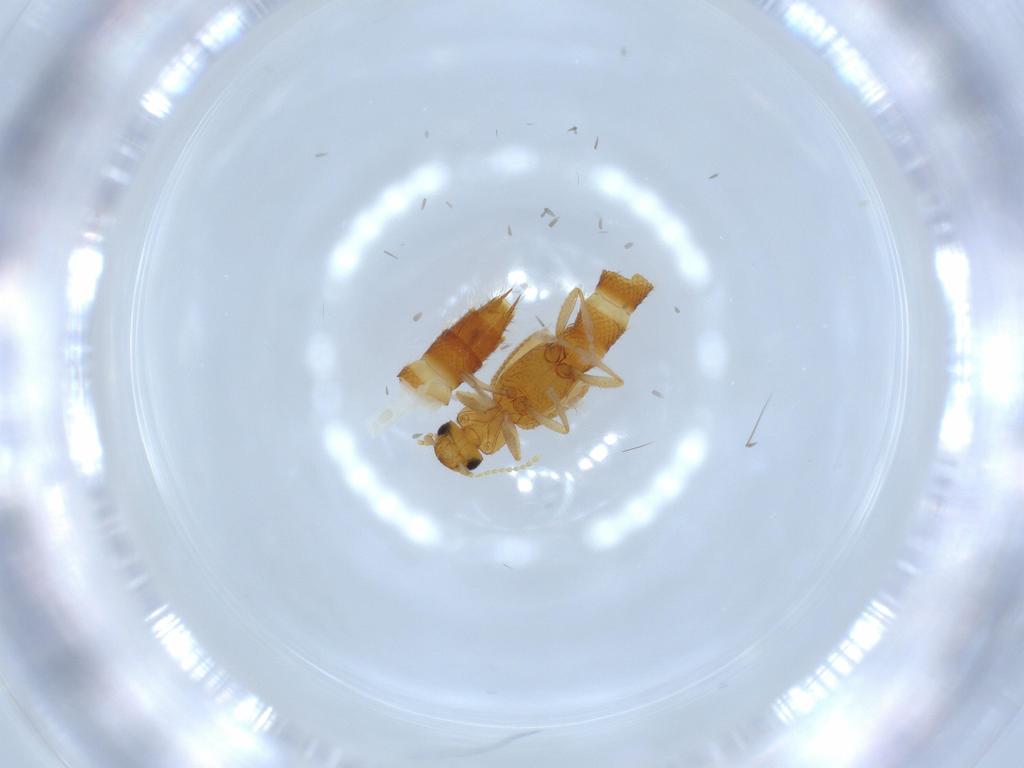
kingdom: Animalia
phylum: Arthropoda
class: Insecta
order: Coleoptera
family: Staphylinidae
